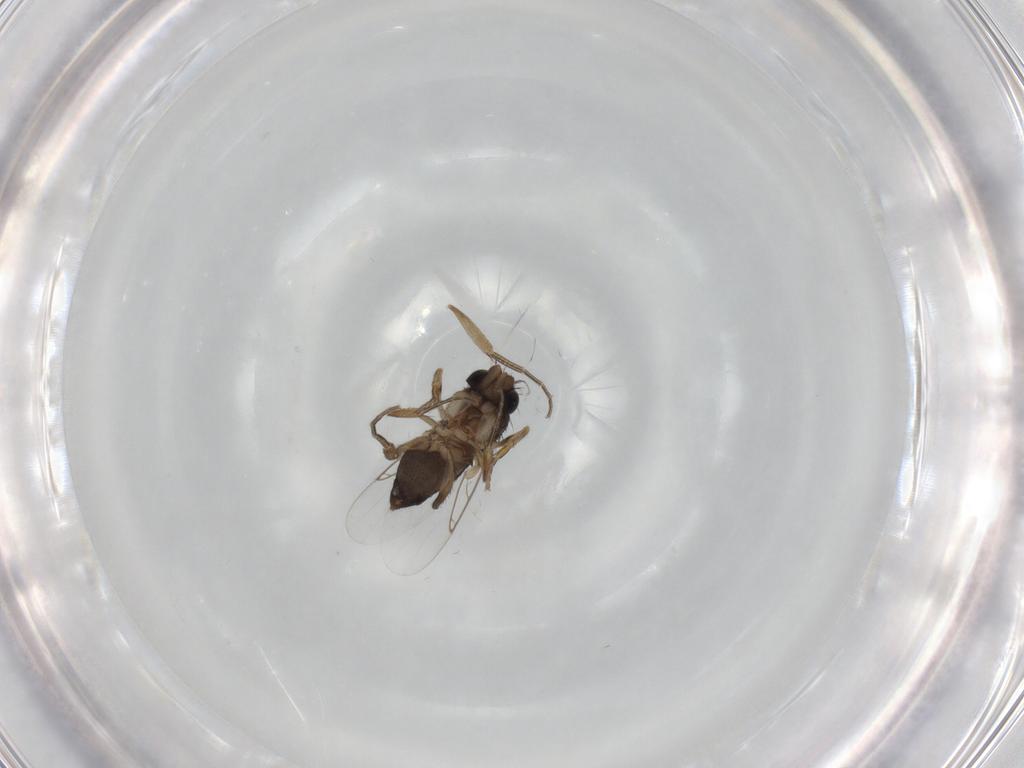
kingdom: Animalia
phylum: Arthropoda
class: Insecta
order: Diptera
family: Phoridae
